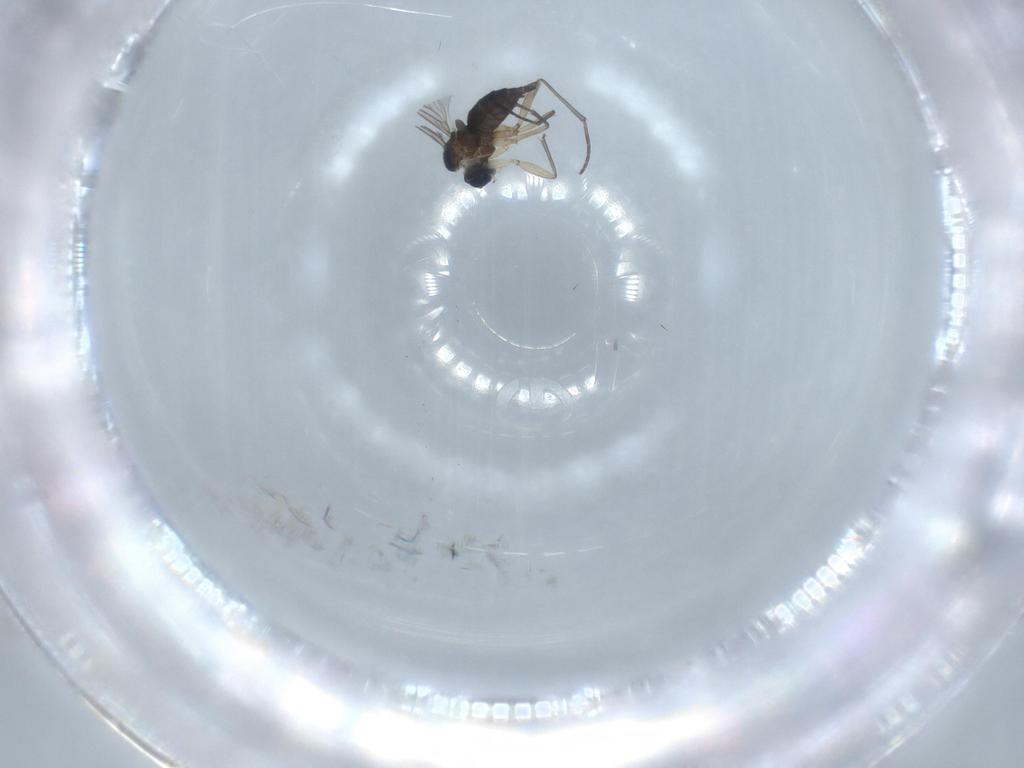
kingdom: Animalia
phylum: Arthropoda
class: Insecta
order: Diptera
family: Sciaridae
